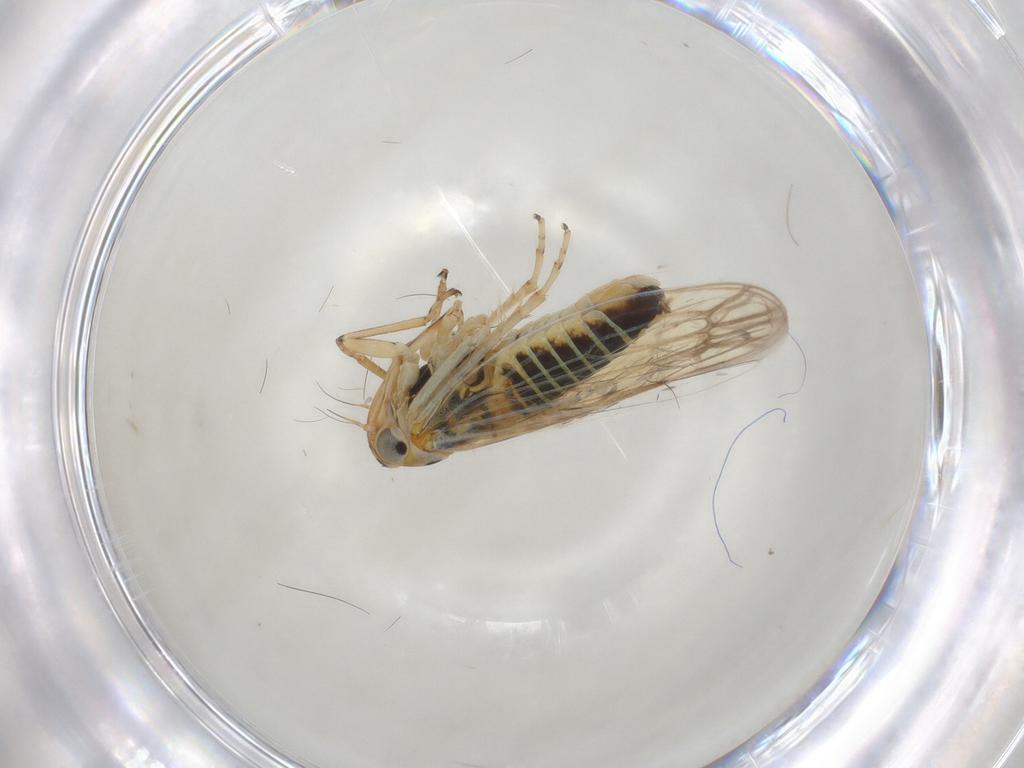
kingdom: Animalia
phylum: Arthropoda
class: Insecta
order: Hemiptera
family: Cicadellidae
